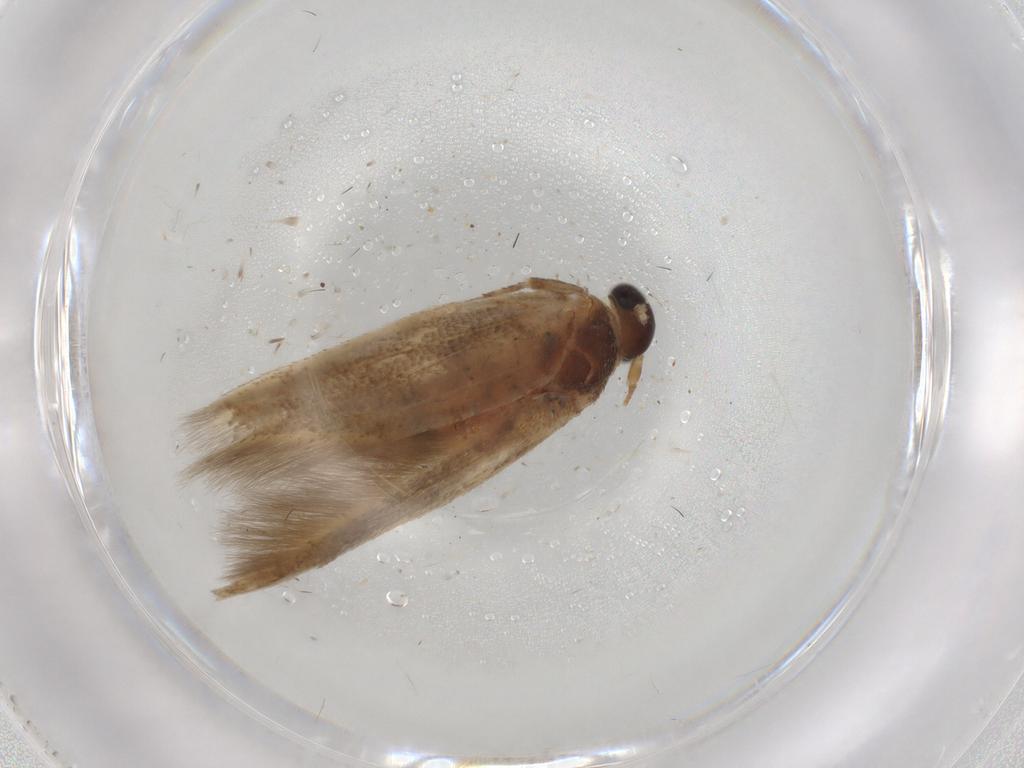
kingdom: Animalia
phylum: Arthropoda
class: Insecta
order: Lepidoptera
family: Scythrididae
